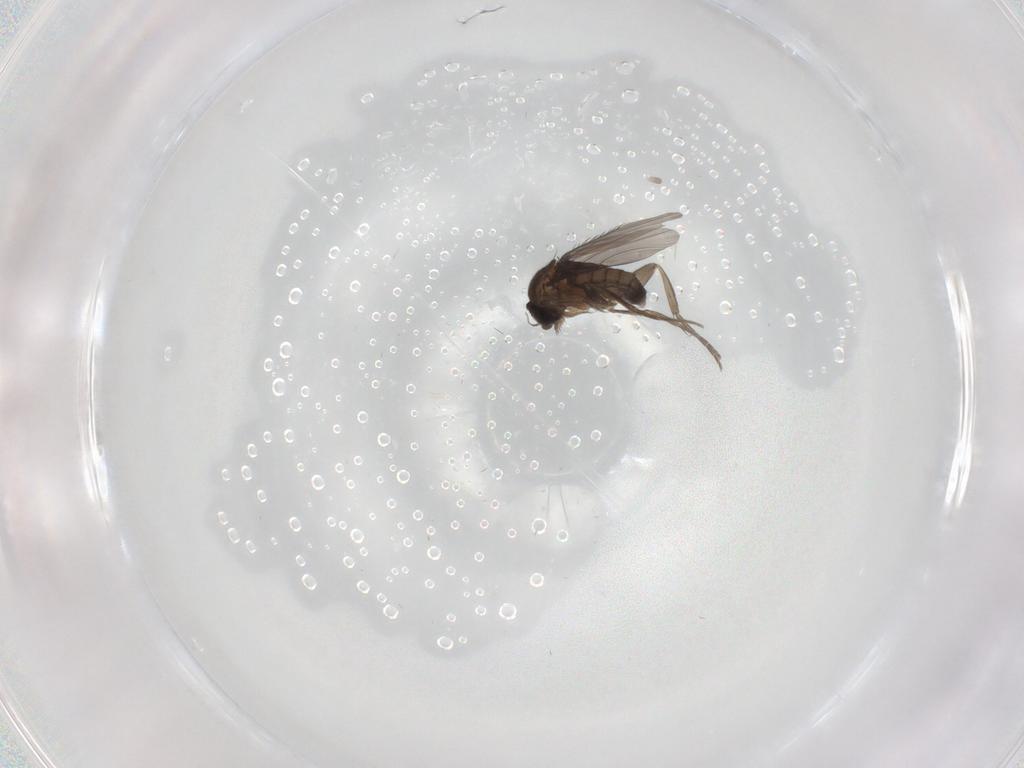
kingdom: Animalia
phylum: Arthropoda
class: Insecta
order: Diptera
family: Phoridae
